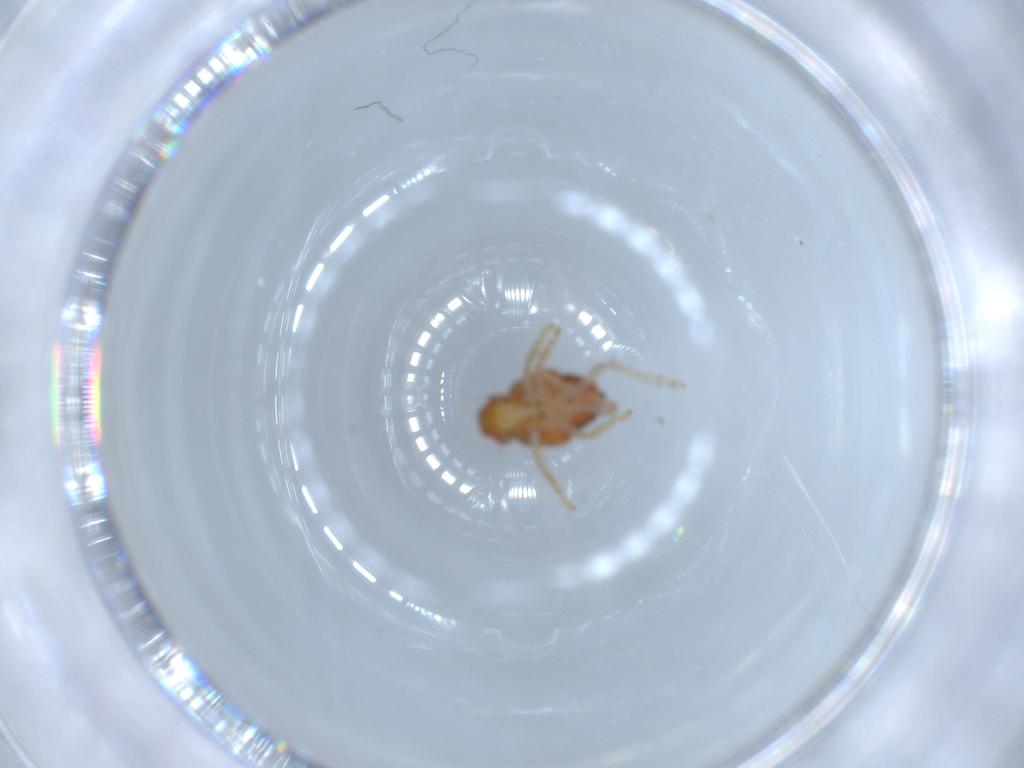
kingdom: Animalia
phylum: Arthropoda
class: Insecta
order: Hemiptera
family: Issidae
